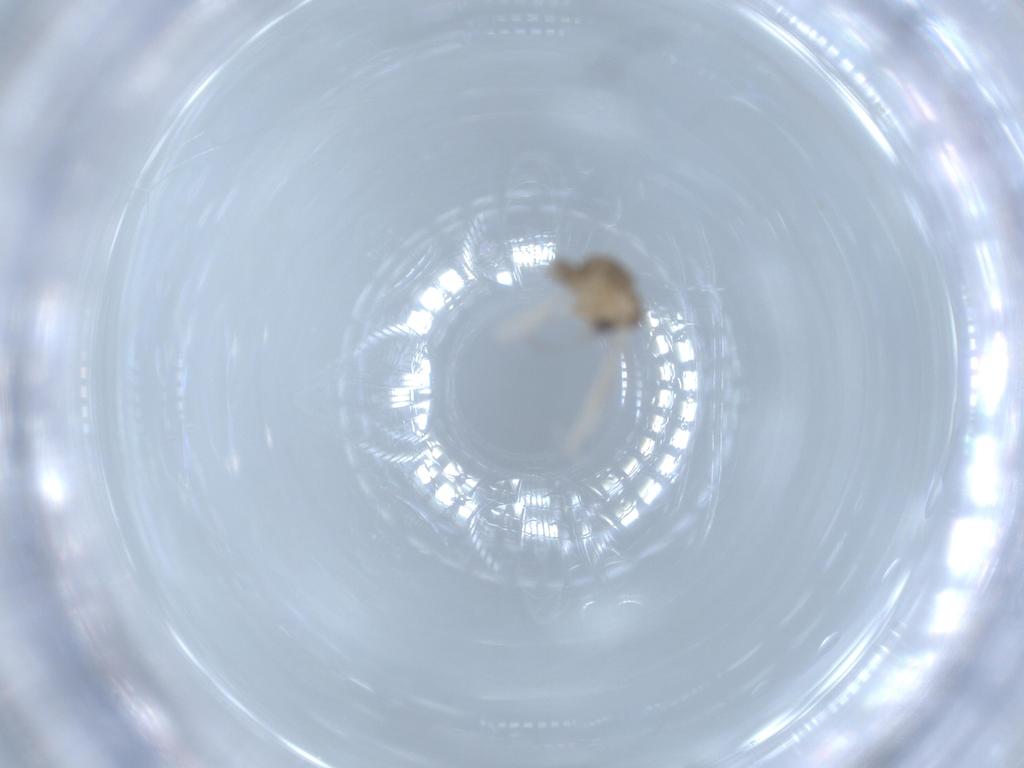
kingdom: Animalia
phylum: Arthropoda
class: Insecta
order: Diptera
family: Psychodidae
